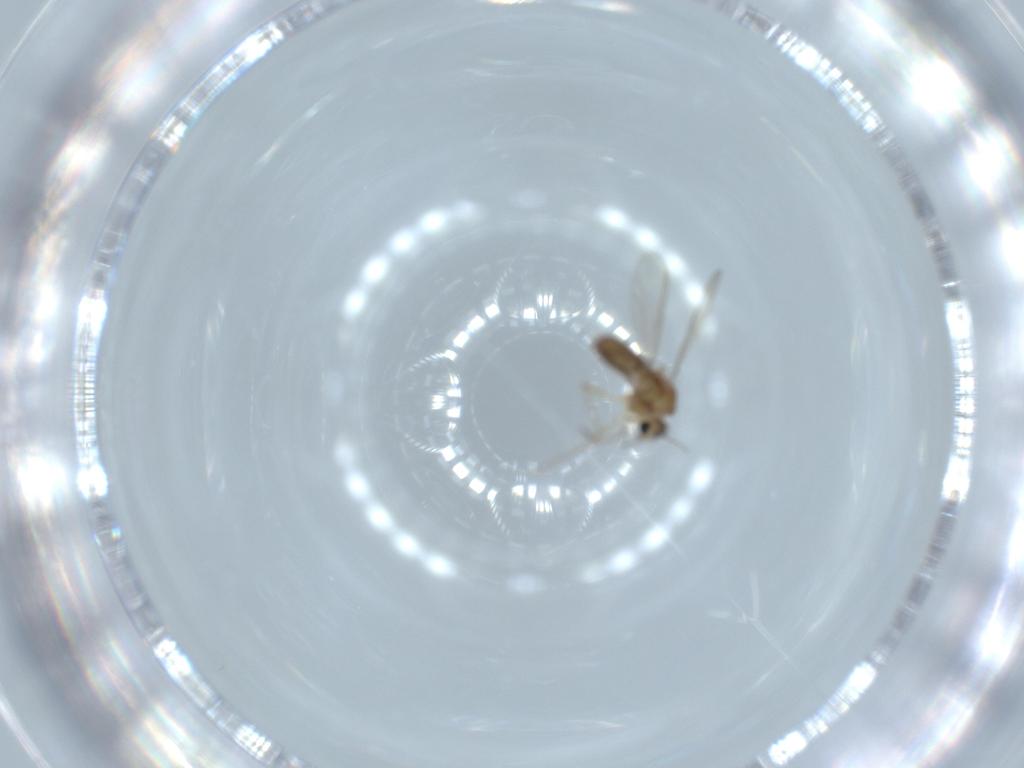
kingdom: Animalia
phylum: Arthropoda
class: Insecta
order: Diptera
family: Chironomidae
